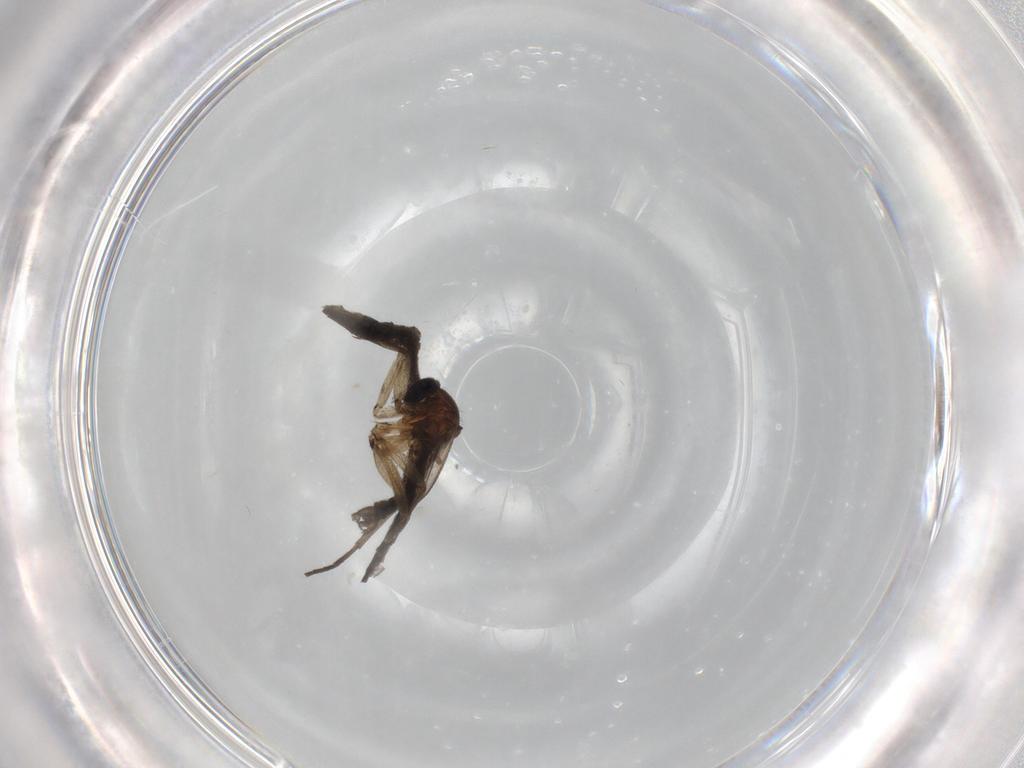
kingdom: Animalia
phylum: Arthropoda
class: Insecta
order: Diptera
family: Chironomidae
